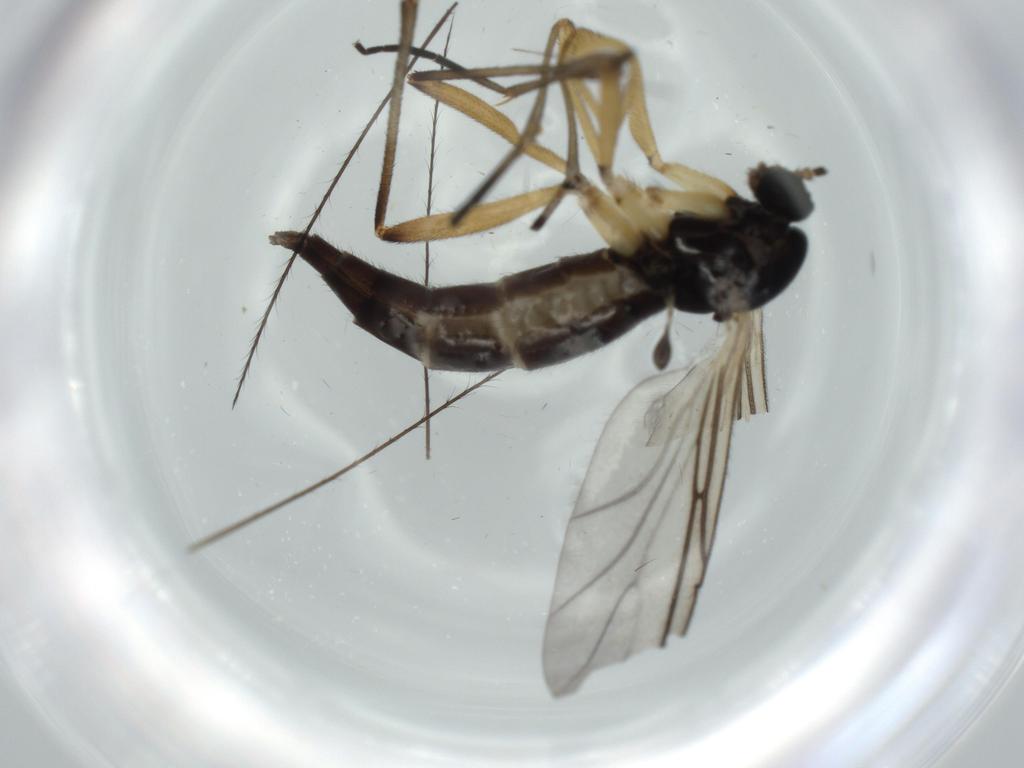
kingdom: Animalia
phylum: Arthropoda
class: Insecta
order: Diptera
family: Sciaridae
